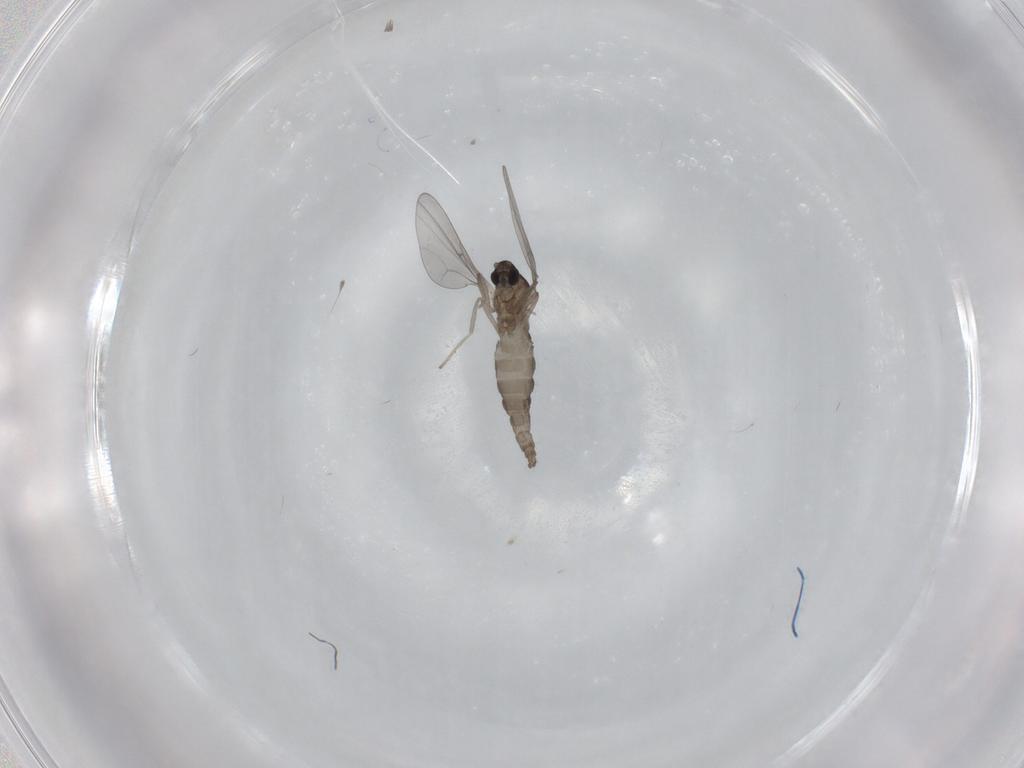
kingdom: Animalia
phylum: Arthropoda
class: Insecta
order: Diptera
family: Cecidomyiidae
